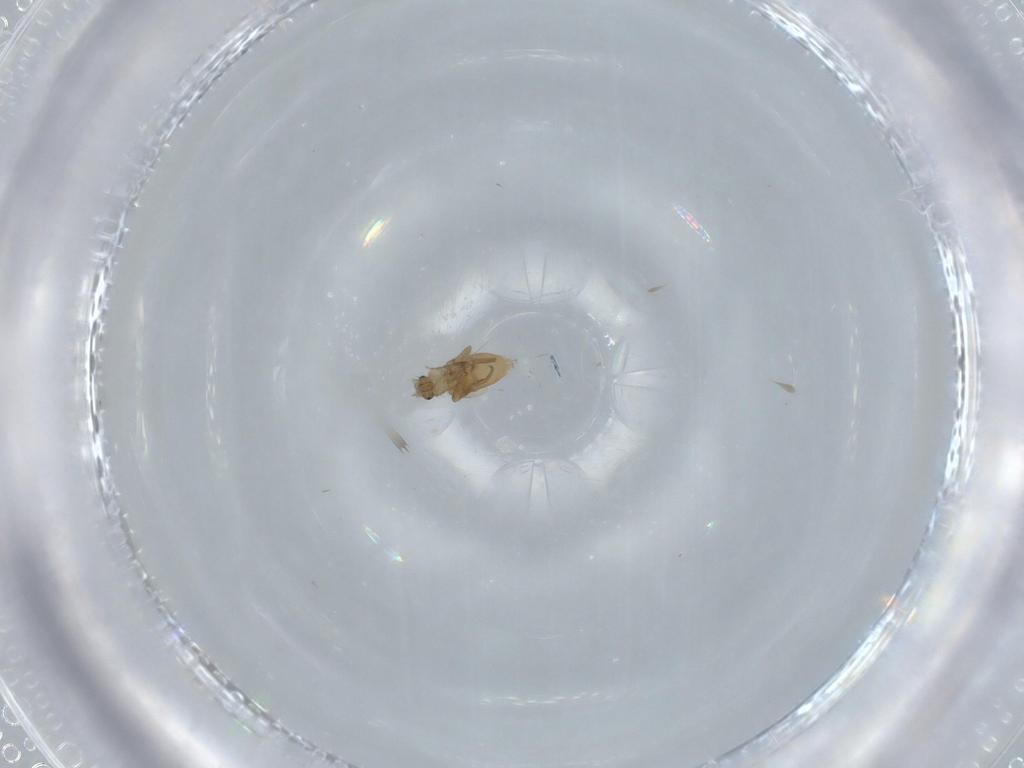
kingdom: Animalia
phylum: Arthropoda
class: Insecta
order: Diptera
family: Phoridae
